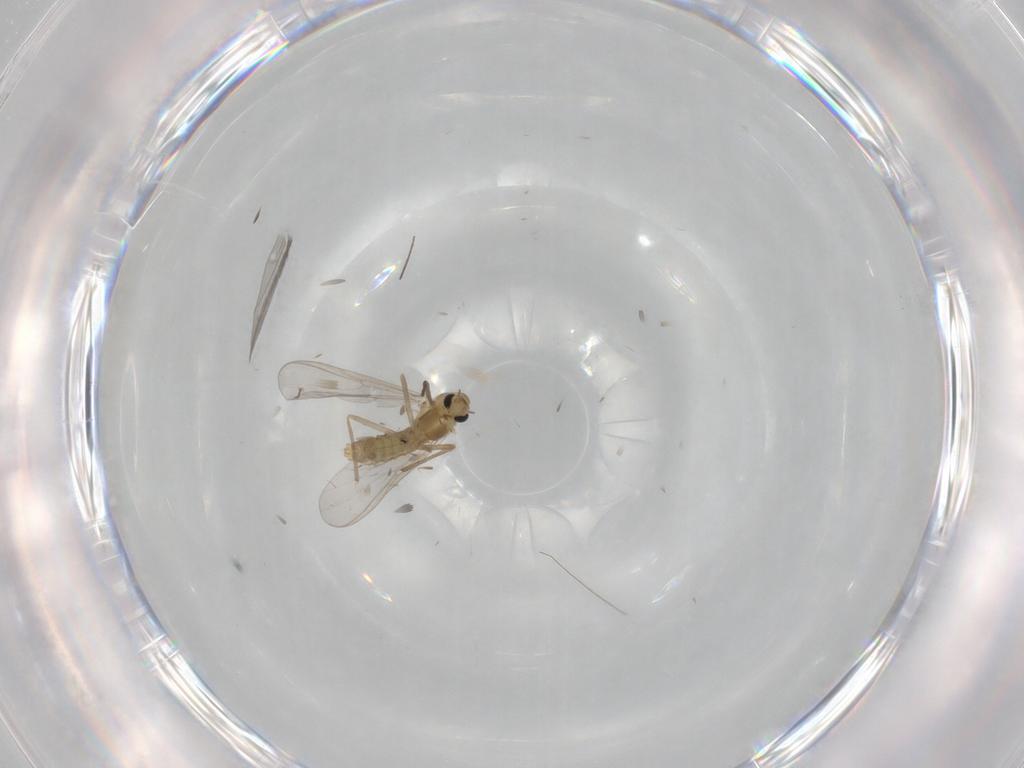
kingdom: Animalia
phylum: Arthropoda
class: Insecta
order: Diptera
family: Chironomidae
